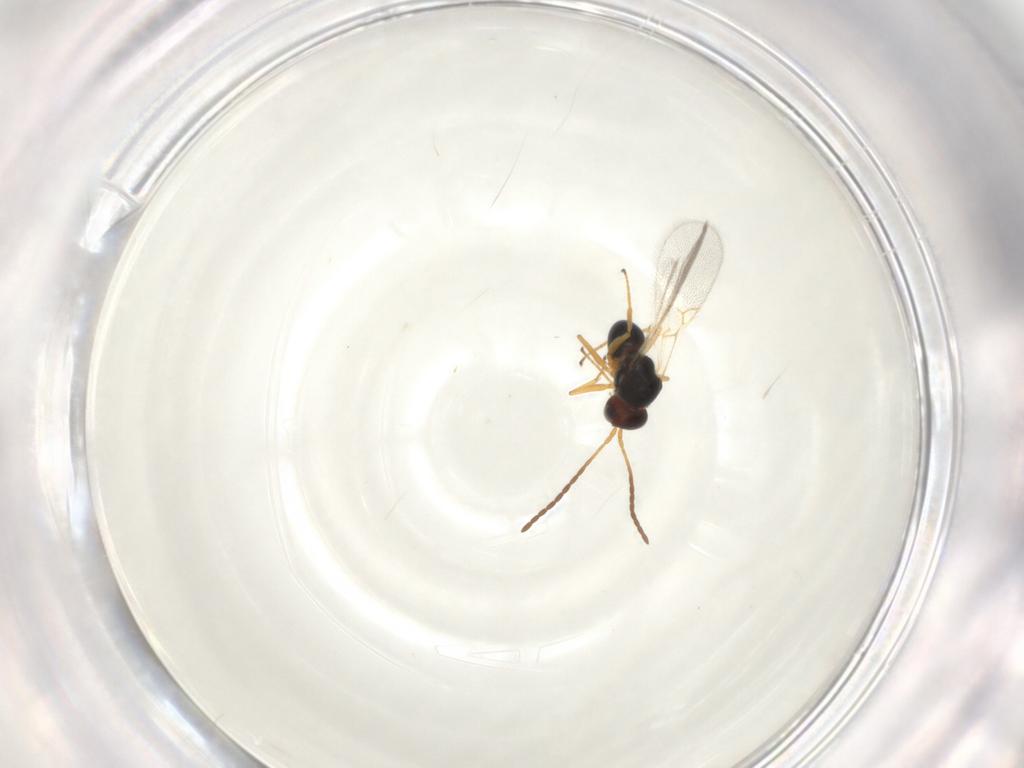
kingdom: Animalia
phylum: Arthropoda
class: Insecta
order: Hymenoptera
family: Figitidae
